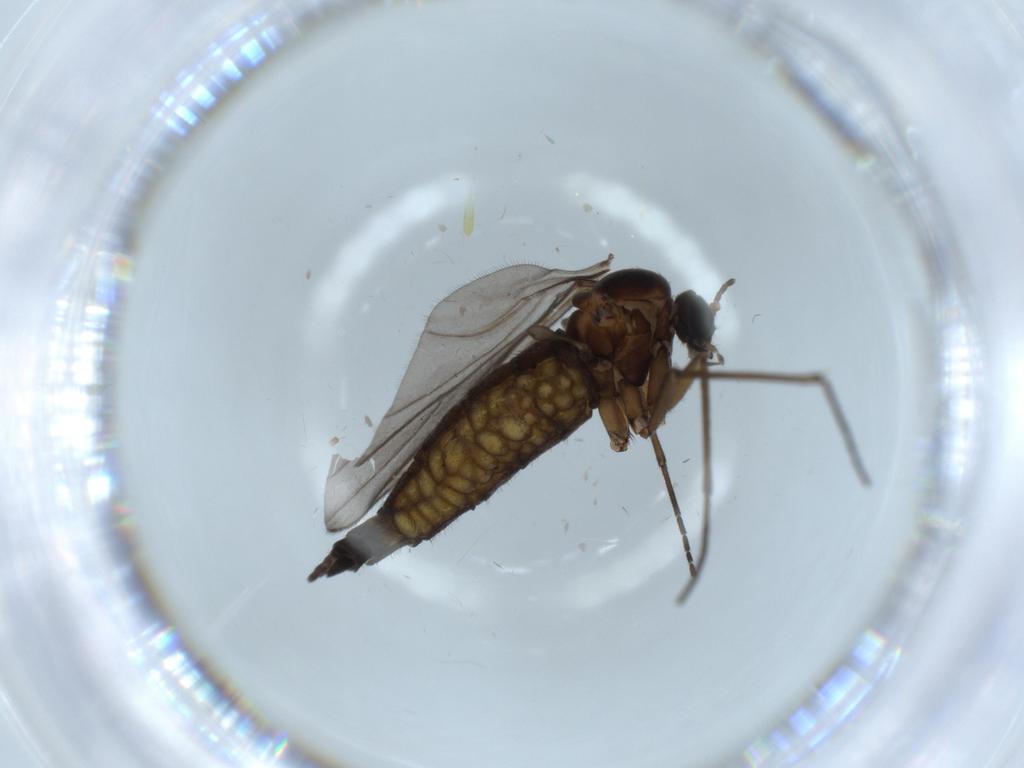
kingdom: Animalia
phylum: Arthropoda
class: Insecta
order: Diptera
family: Sciaridae
